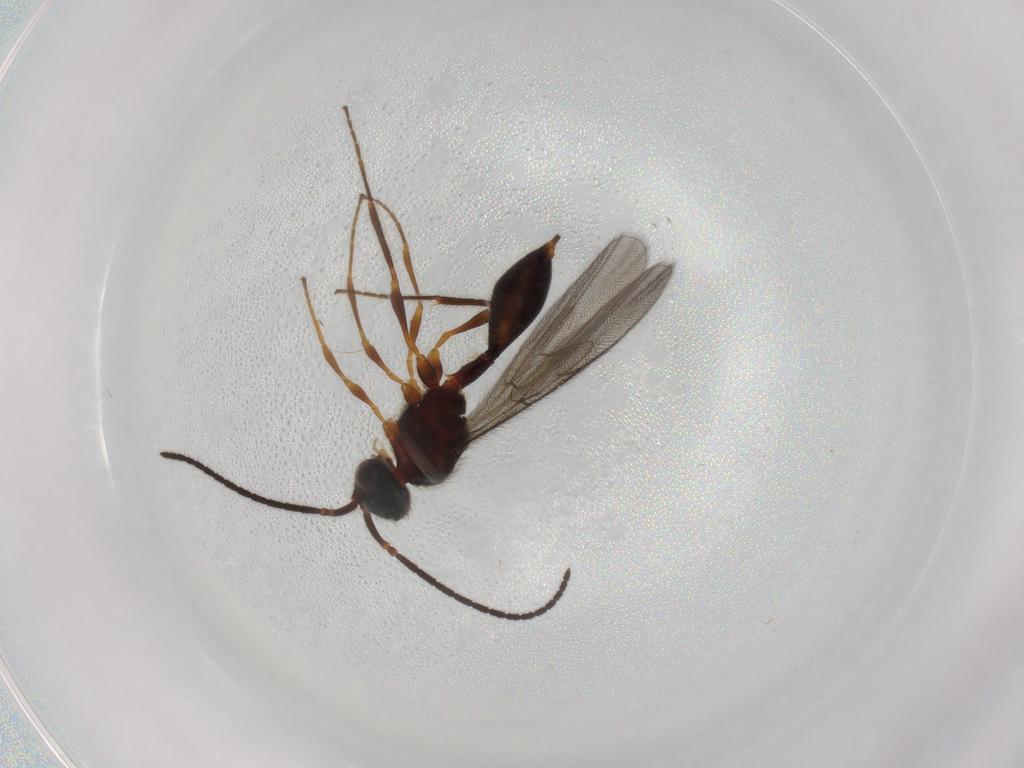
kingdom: Animalia
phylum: Arthropoda
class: Insecta
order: Hymenoptera
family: Diapriidae
